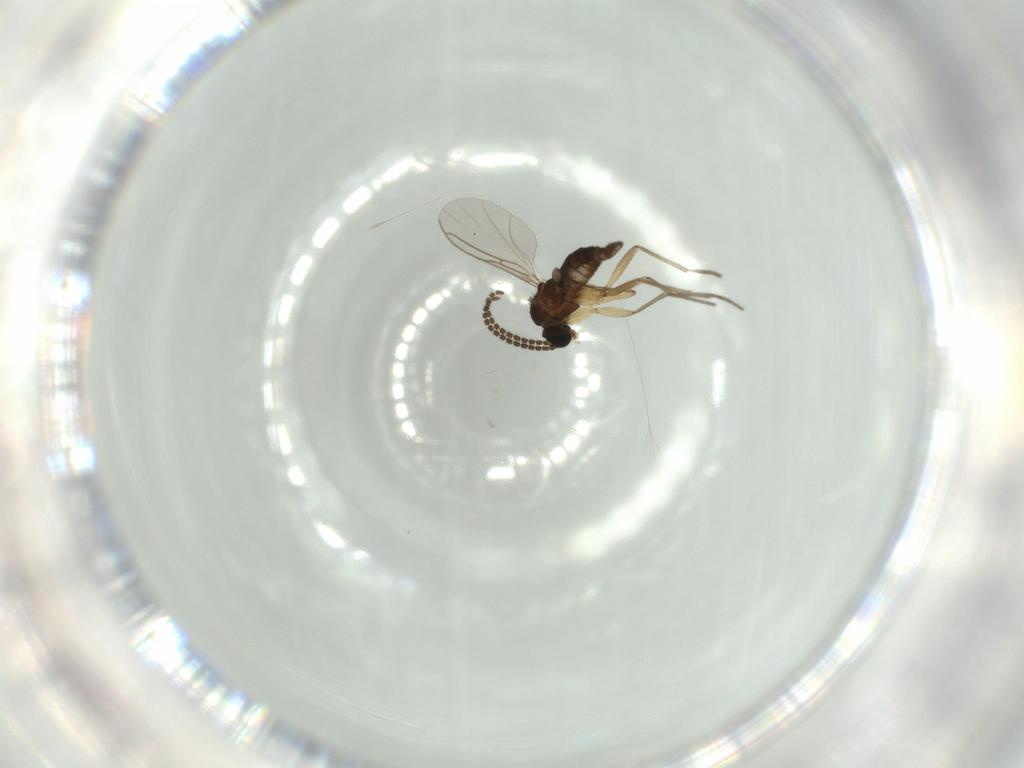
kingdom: Animalia
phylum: Arthropoda
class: Insecta
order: Diptera
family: Sciaridae
